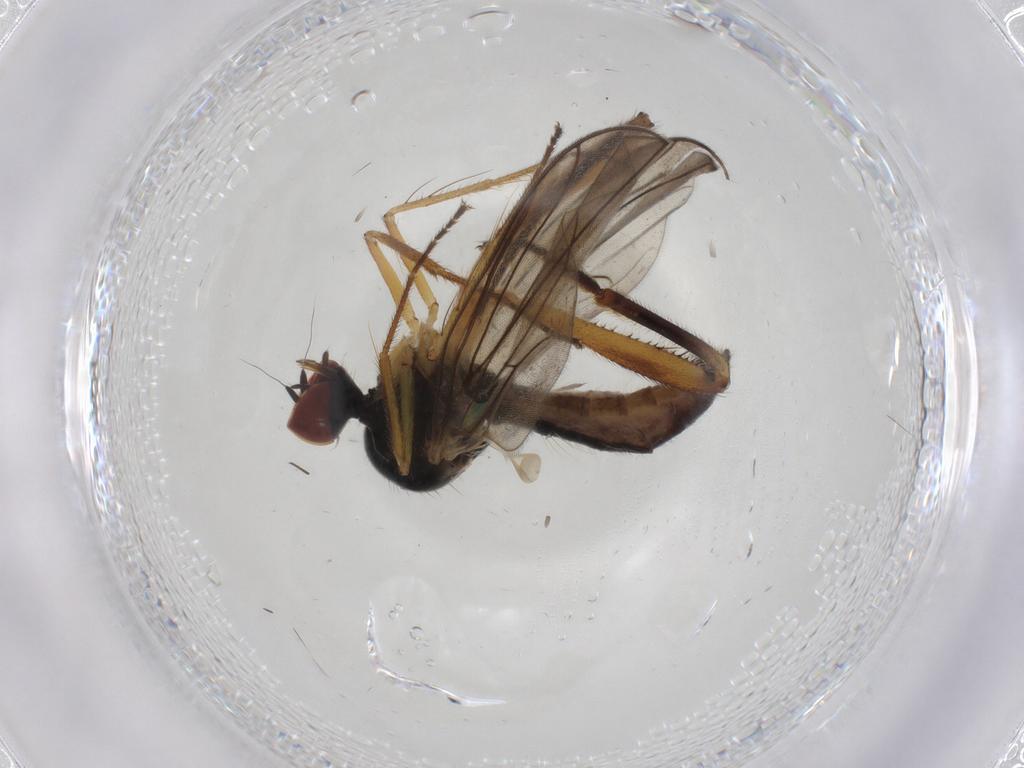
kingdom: Animalia
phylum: Arthropoda
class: Insecta
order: Diptera
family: Hybotidae
